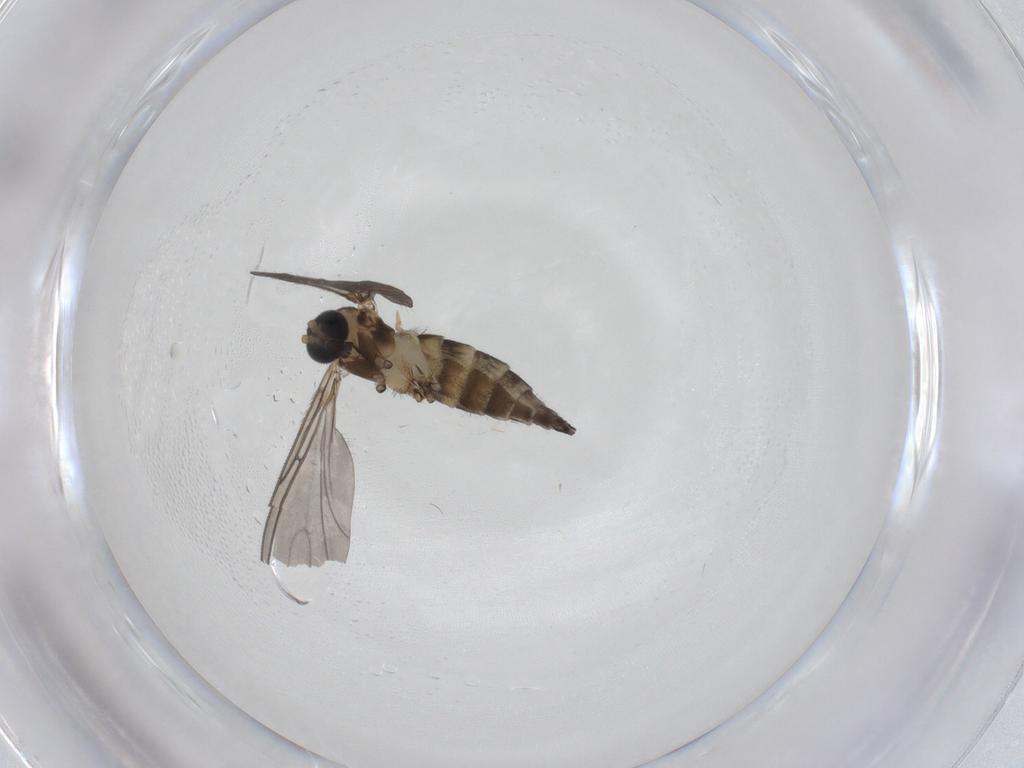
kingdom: Animalia
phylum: Arthropoda
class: Insecta
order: Diptera
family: Sciaridae
